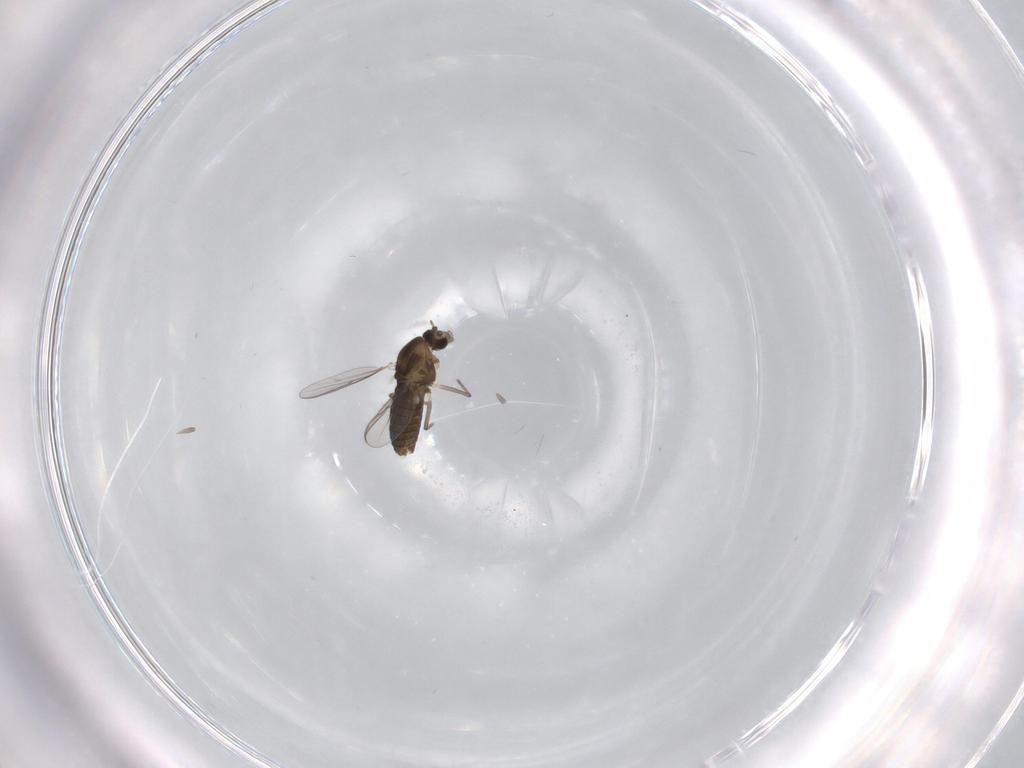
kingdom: Animalia
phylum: Arthropoda
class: Insecta
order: Diptera
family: Chironomidae
